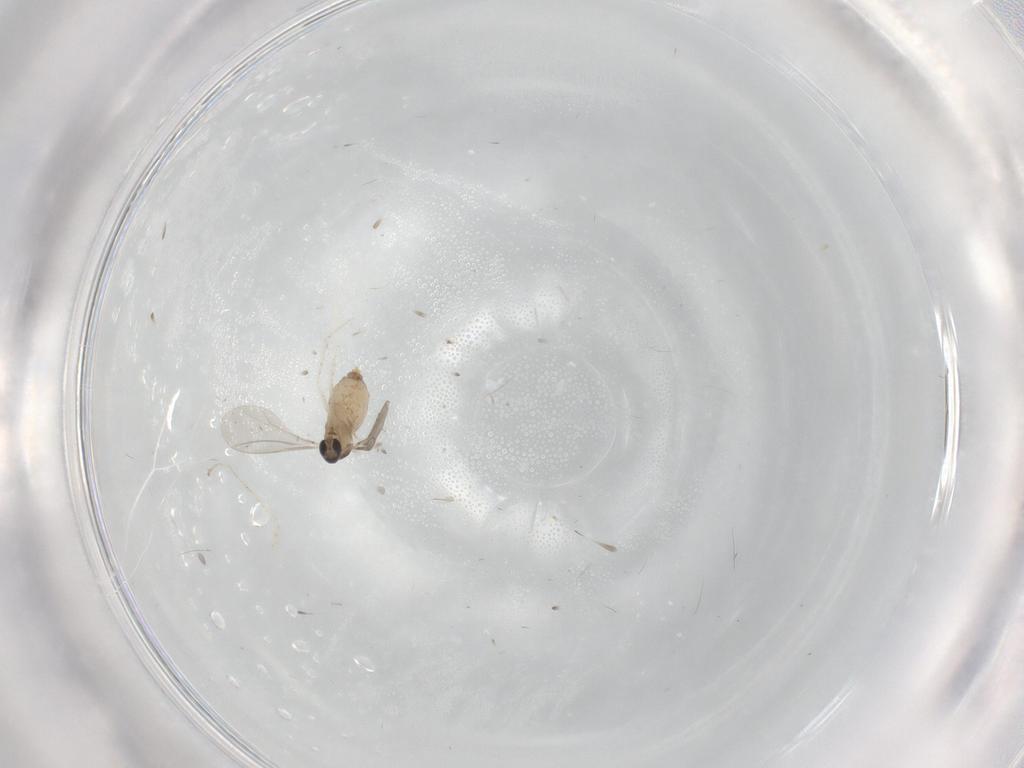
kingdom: Animalia
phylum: Arthropoda
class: Insecta
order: Diptera
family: Cecidomyiidae
